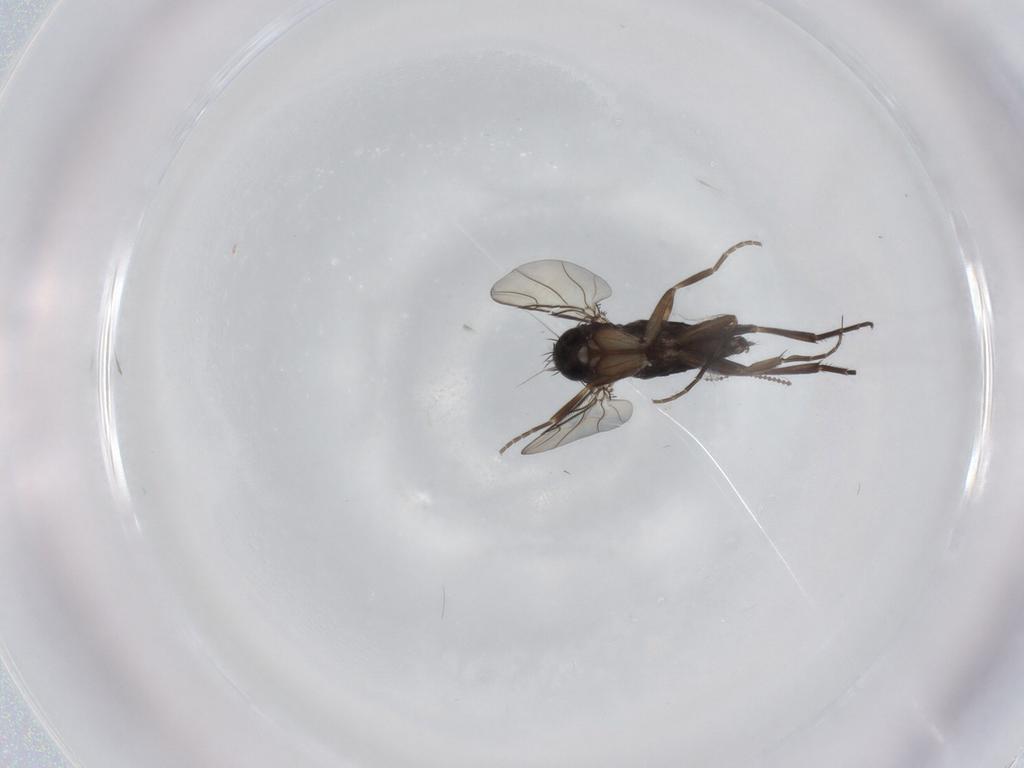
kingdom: Animalia
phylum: Arthropoda
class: Insecta
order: Diptera
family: Phoridae
